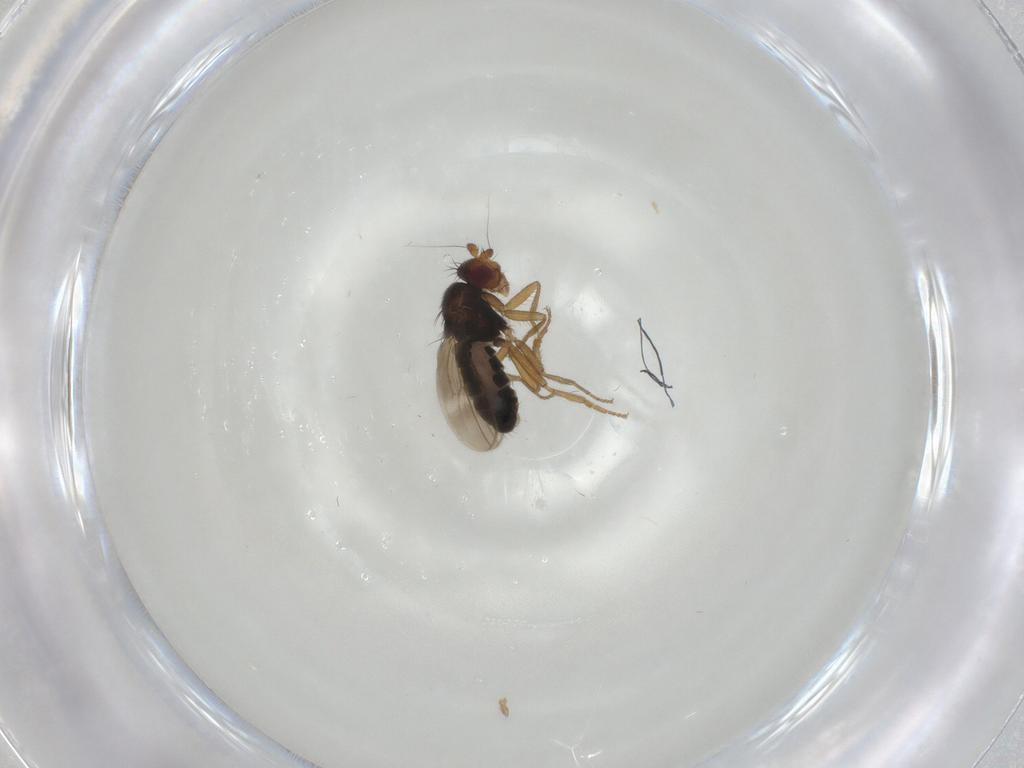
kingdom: Animalia
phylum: Arthropoda
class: Insecta
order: Diptera
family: Sphaeroceridae
